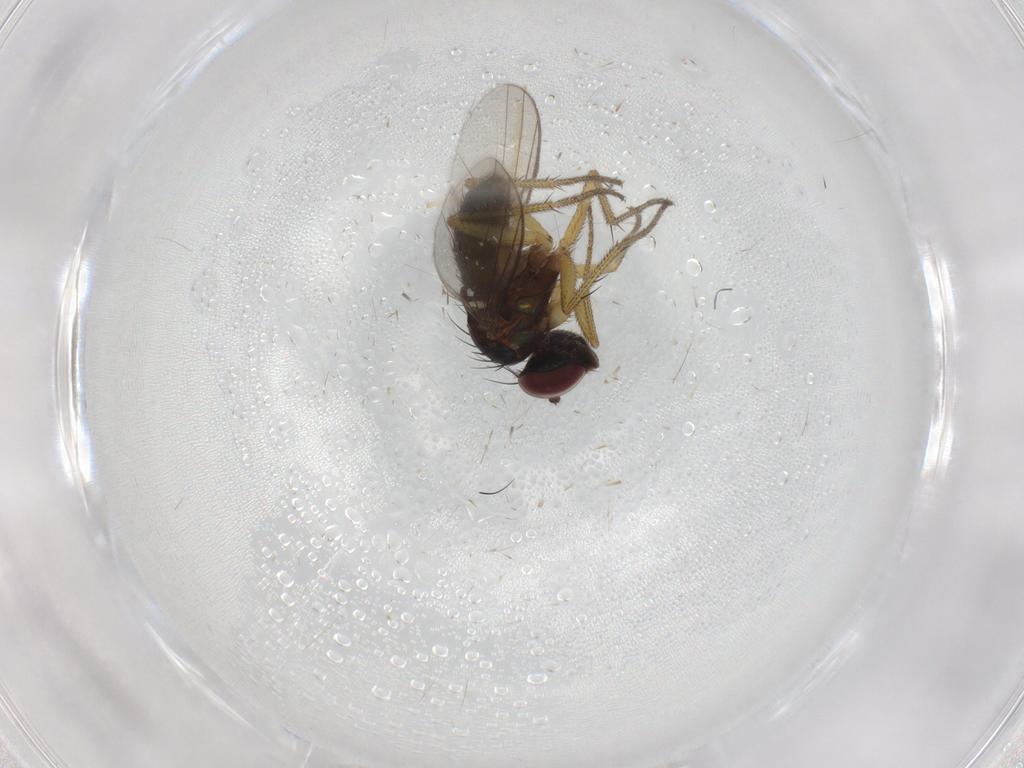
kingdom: Animalia
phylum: Arthropoda
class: Insecta
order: Diptera
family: Dolichopodidae
